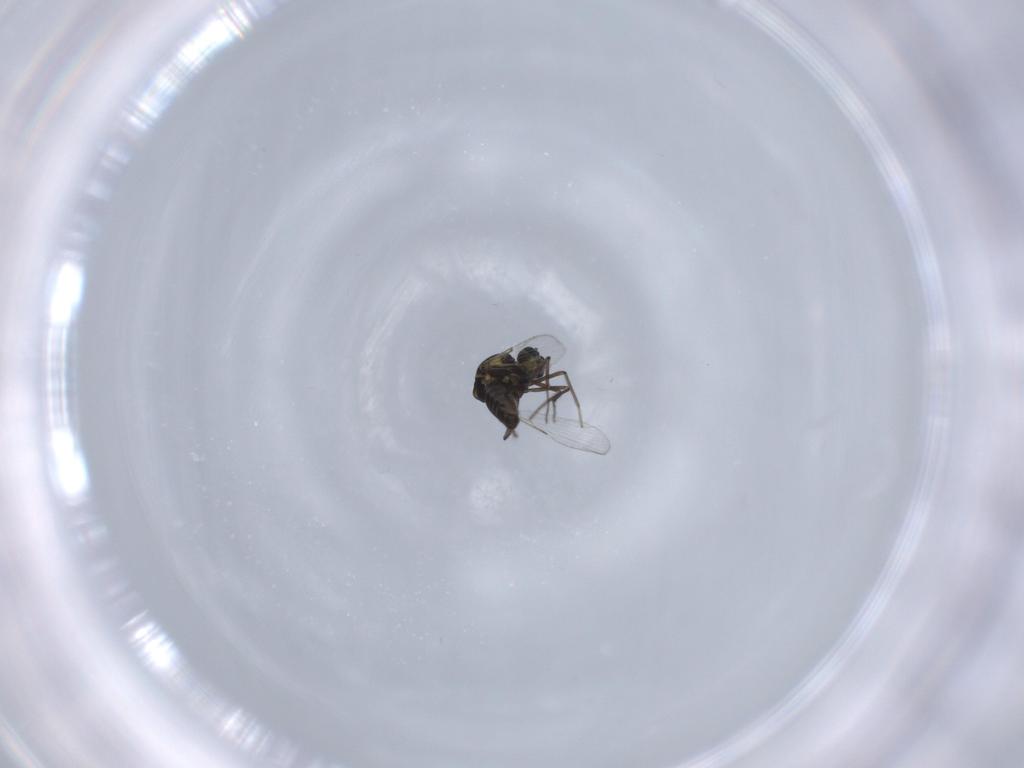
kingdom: Animalia
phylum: Arthropoda
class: Insecta
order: Diptera
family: Ceratopogonidae
